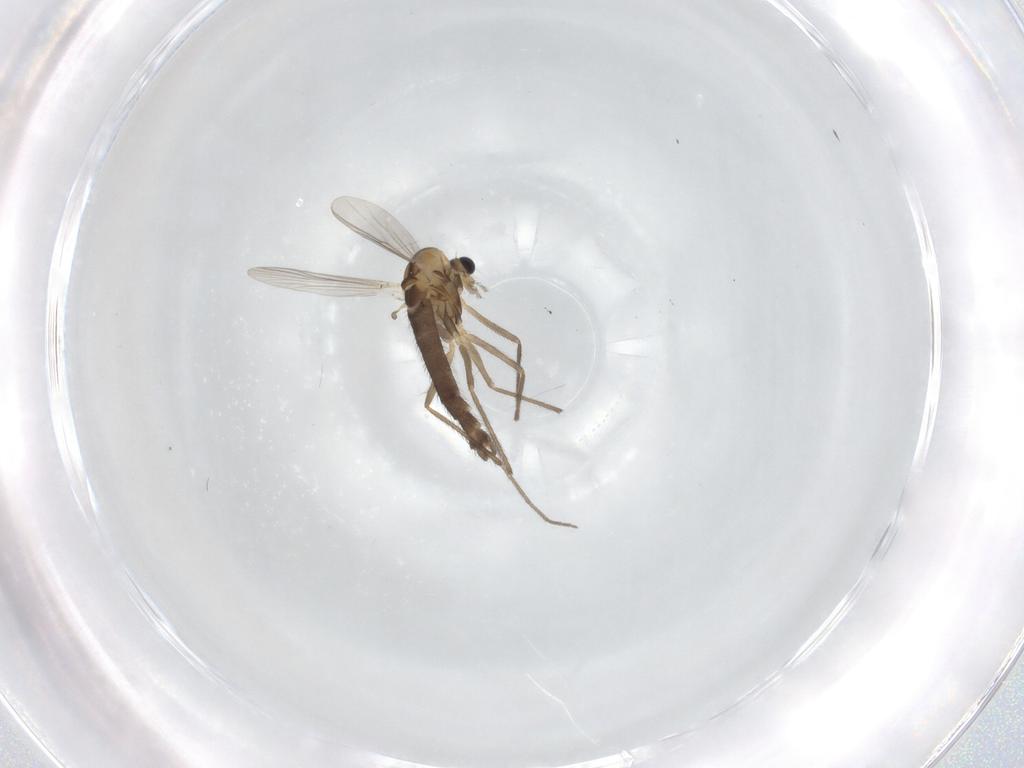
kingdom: Animalia
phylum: Arthropoda
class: Insecta
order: Diptera
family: Chironomidae
